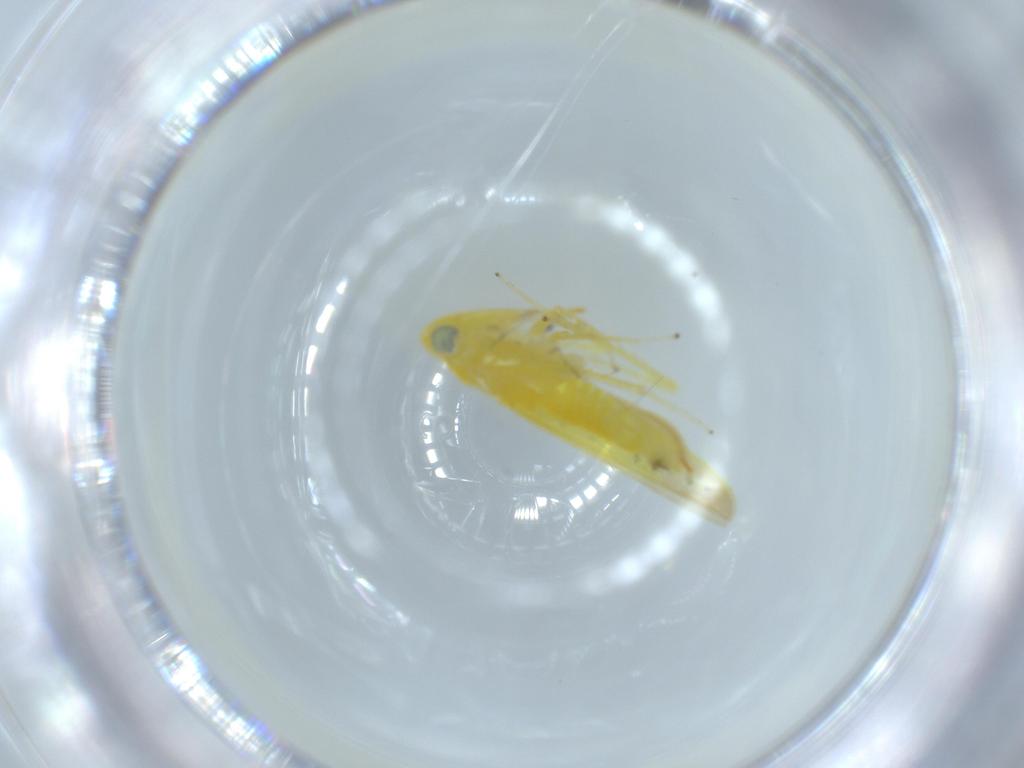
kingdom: Animalia
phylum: Arthropoda
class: Insecta
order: Hemiptera
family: Cicadellidae
